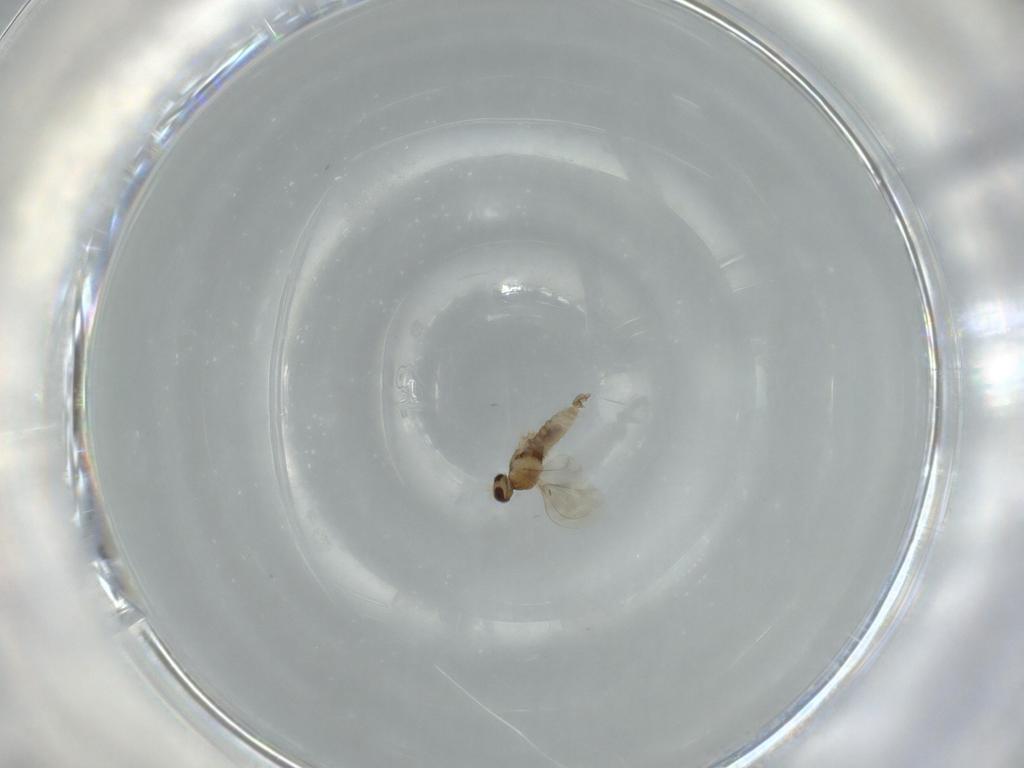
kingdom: Animalia
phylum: Arthropoda
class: Insecta
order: Diptera
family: Cecidomyiidae
